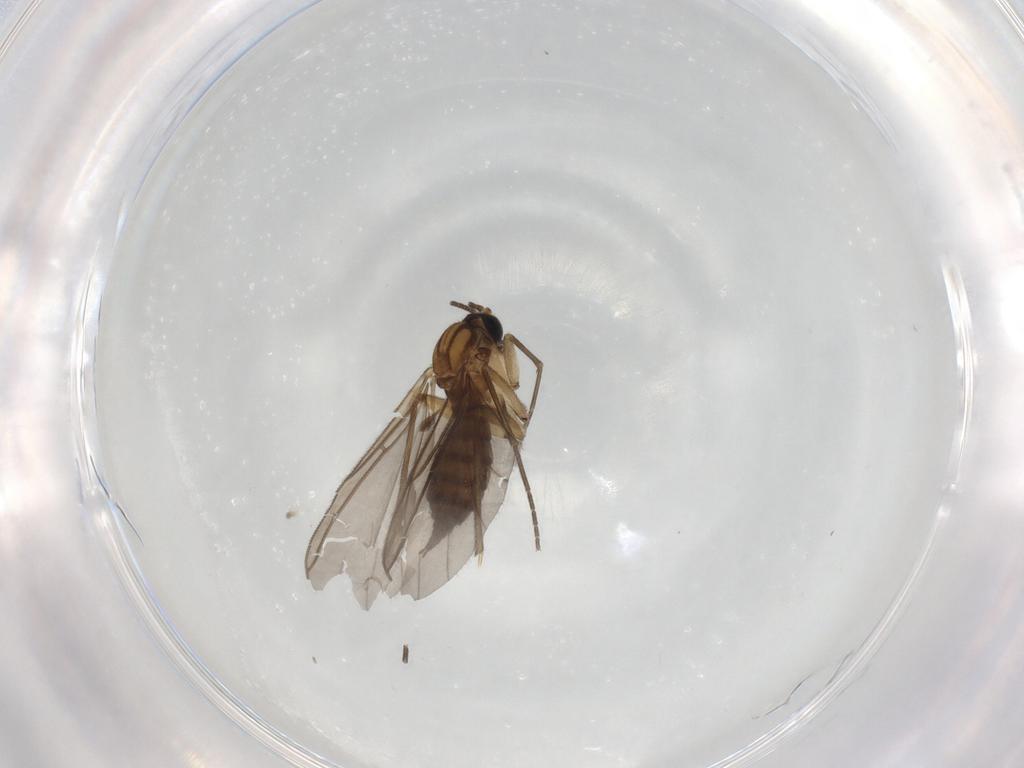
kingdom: Animalia
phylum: Arthropoda
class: Insecta
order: Diptera
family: Sciaridae
